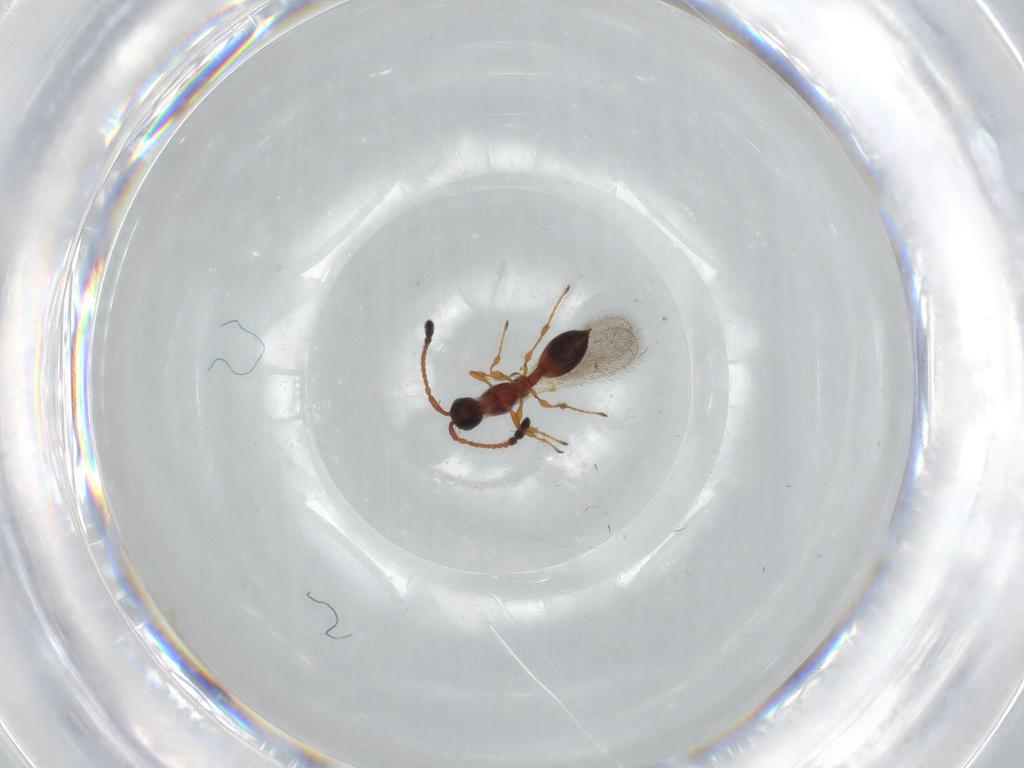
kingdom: Animalia
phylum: Arthropoda
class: Insecta
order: Hymenoptera
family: Diapriidae
